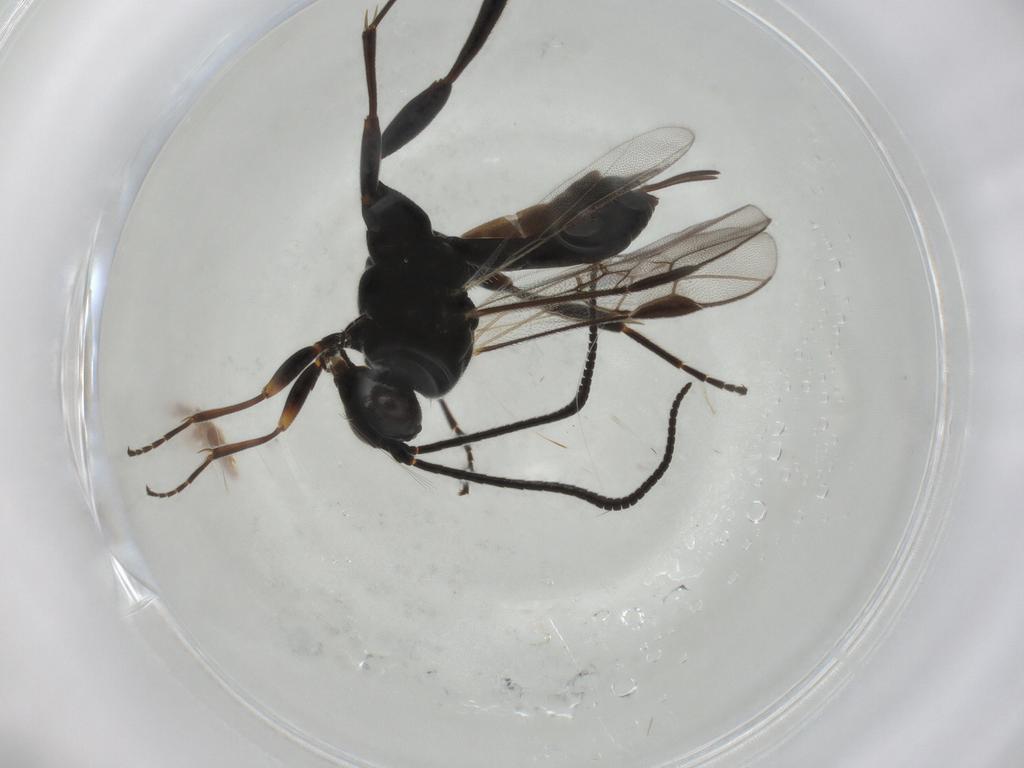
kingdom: Animalia
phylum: Arthropoda
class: Insecta
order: Hymenoptera
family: Braconidae
